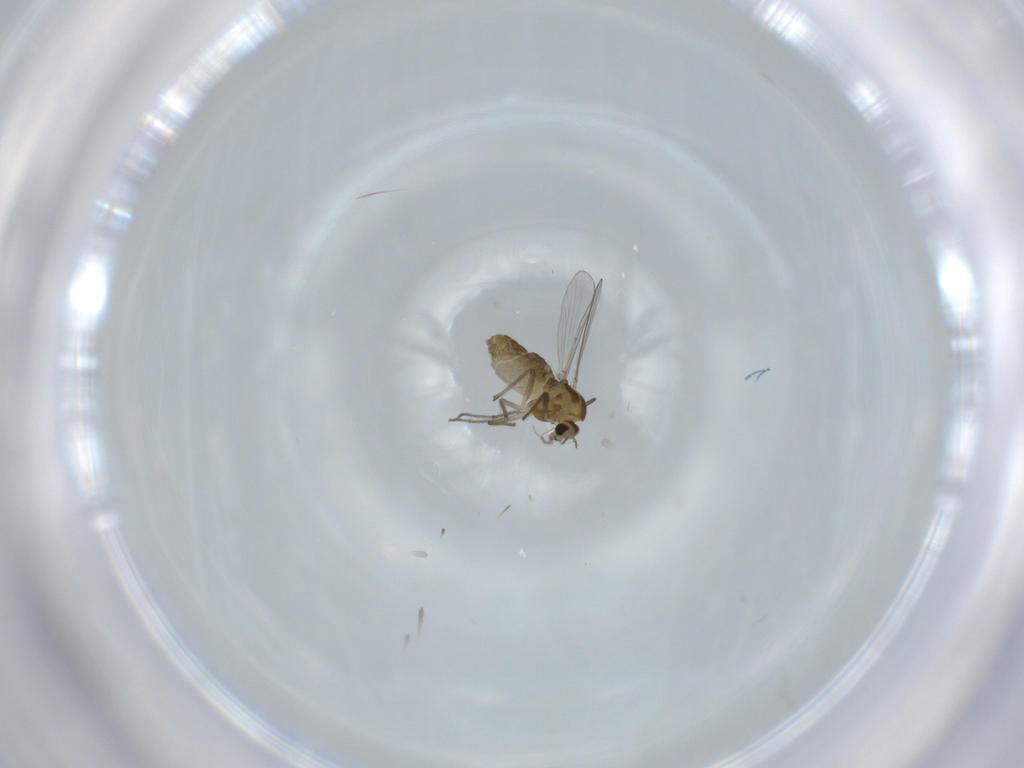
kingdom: Animalia
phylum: Arthropoda
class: Insecta
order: Diptera
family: Chironomidae
